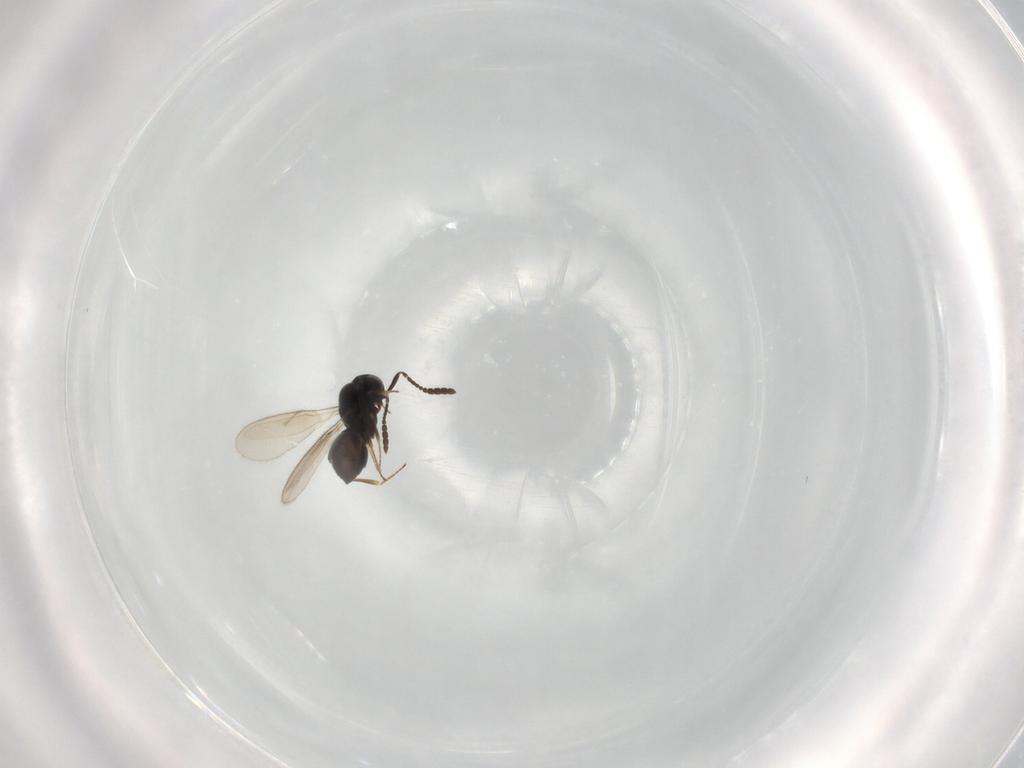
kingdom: Animalia
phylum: Arthropoda
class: Insecta
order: Hymenoptera
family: Scelionidae
